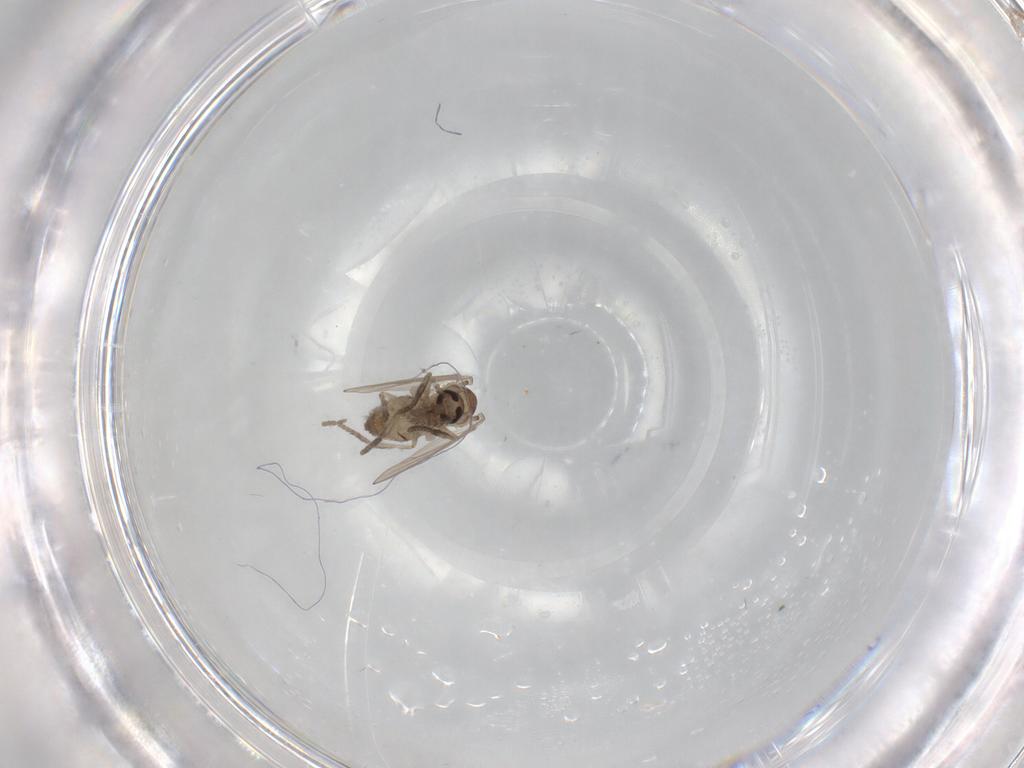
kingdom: Animalia
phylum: Arthropoda
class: Insecta
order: Diptera
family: Psychodidae
